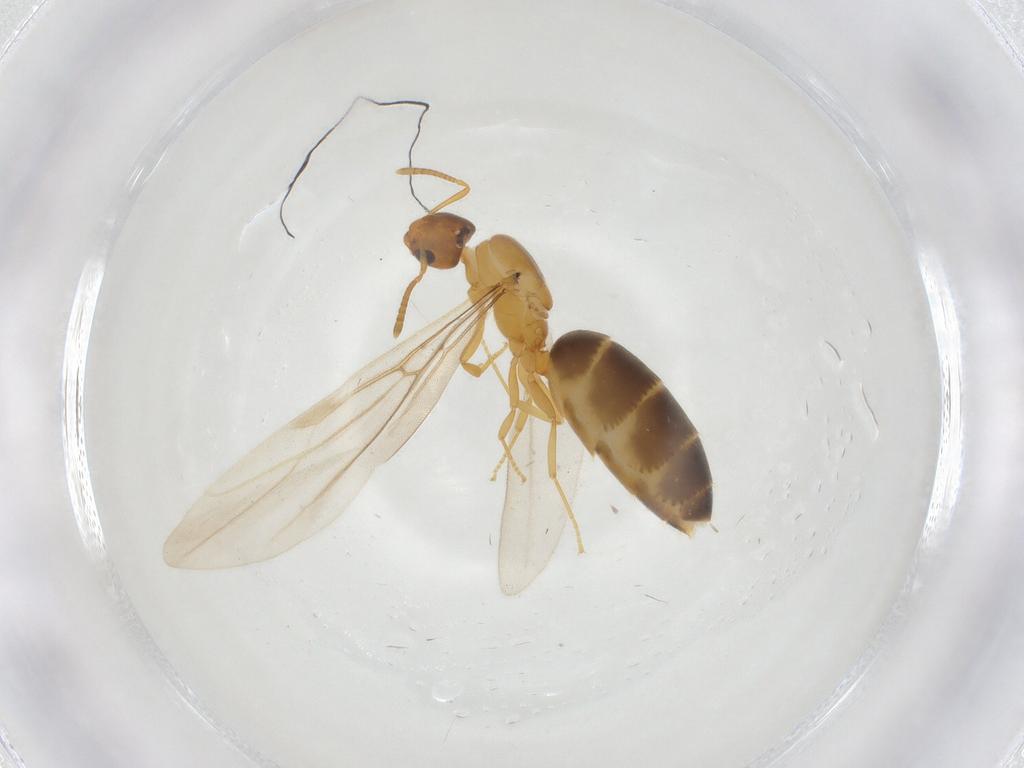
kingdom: Animalia
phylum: Arthropoda
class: Insecta
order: Hymenoptera
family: Formicidae
